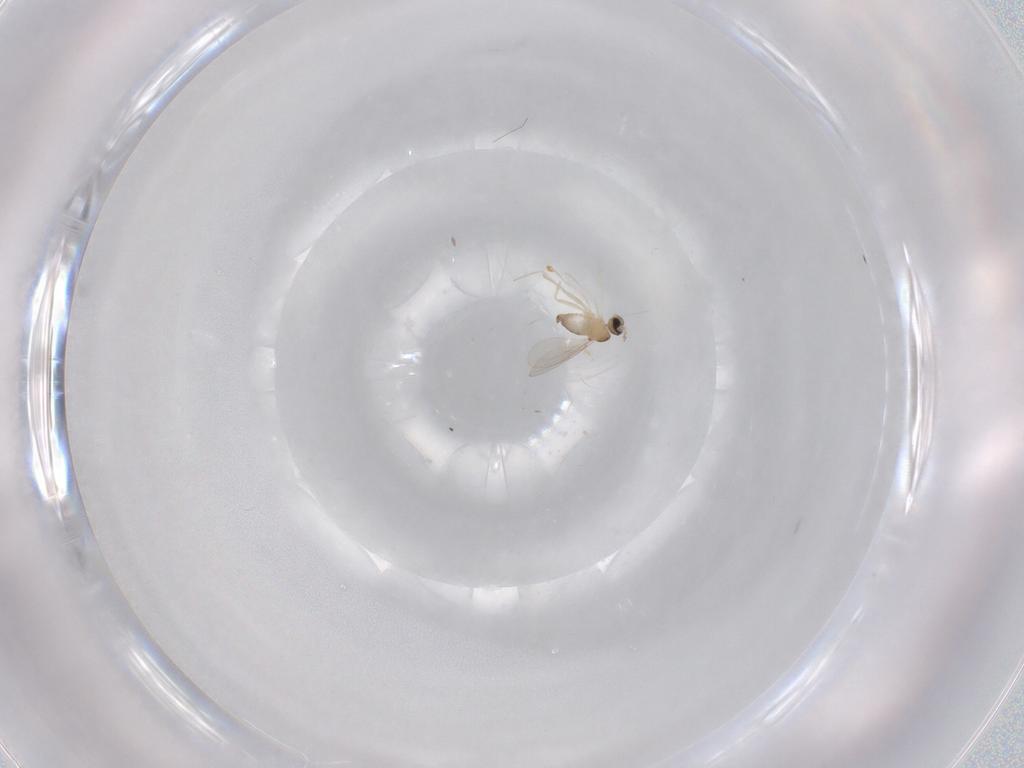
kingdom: Animalia
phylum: Arthropoda
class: Insecta
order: Diptera
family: Cecidomyiidae
